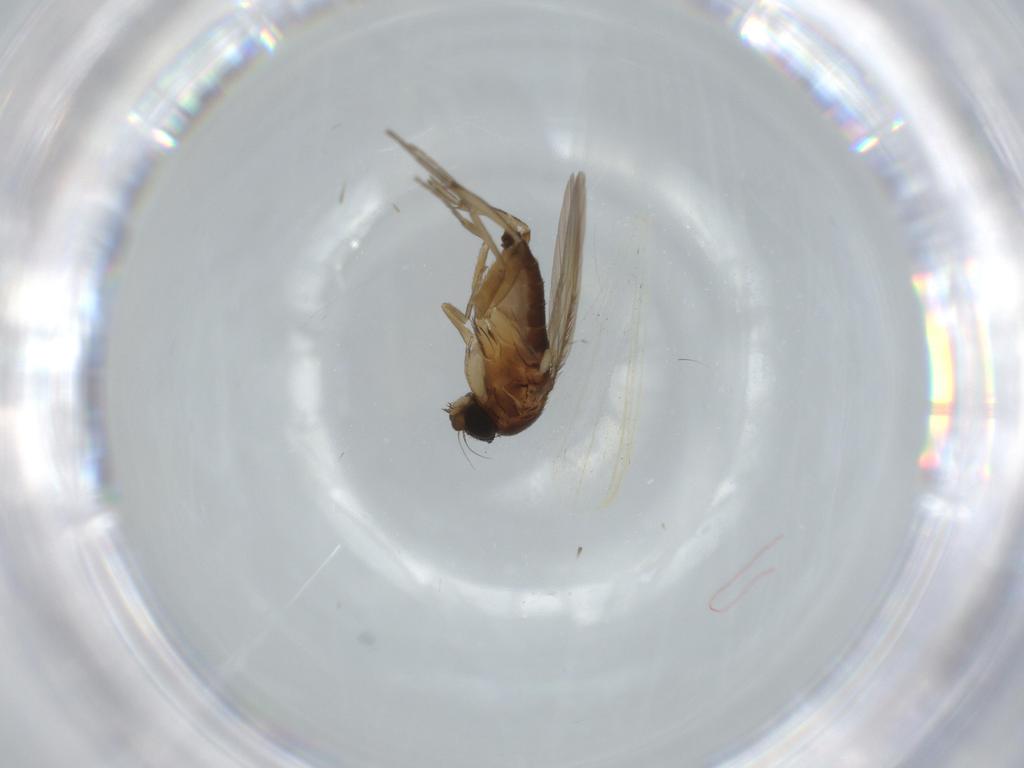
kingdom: Animalia
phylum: Arthropoda
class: Insecta
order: Diptera
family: Phoridae
